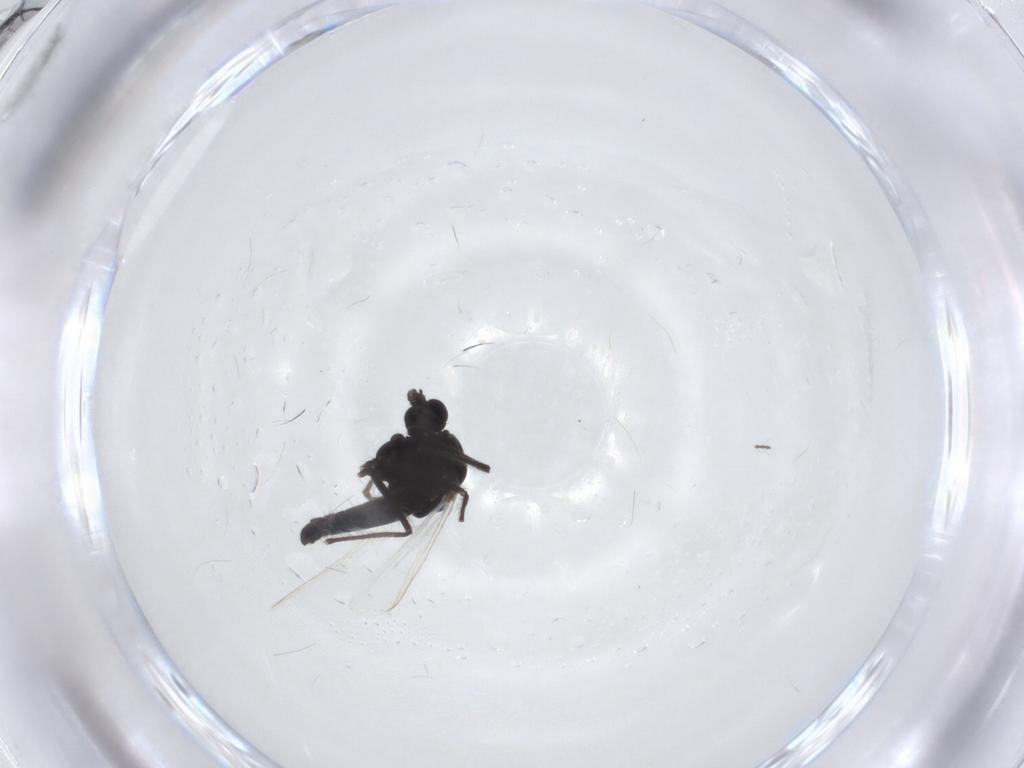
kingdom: Animalia
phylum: Arthropoda
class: Insecta
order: Diptera
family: Chironomidae
